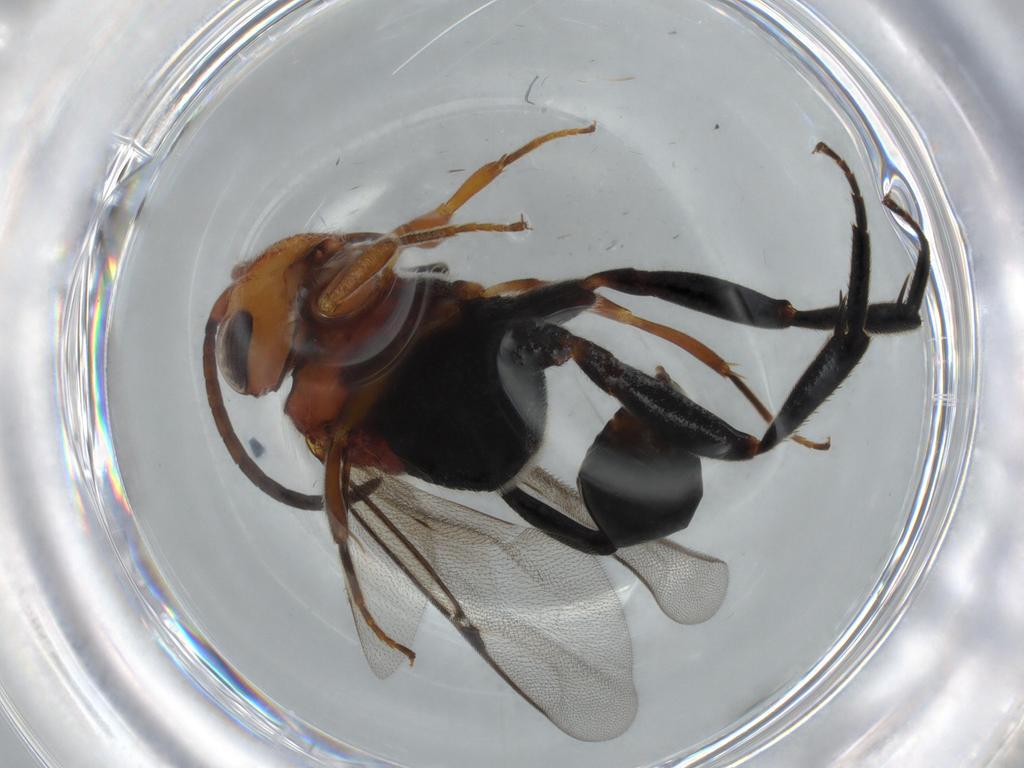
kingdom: Animalia
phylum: Arthropoda
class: Insecta
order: Hymenoptera
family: Evaniidae
